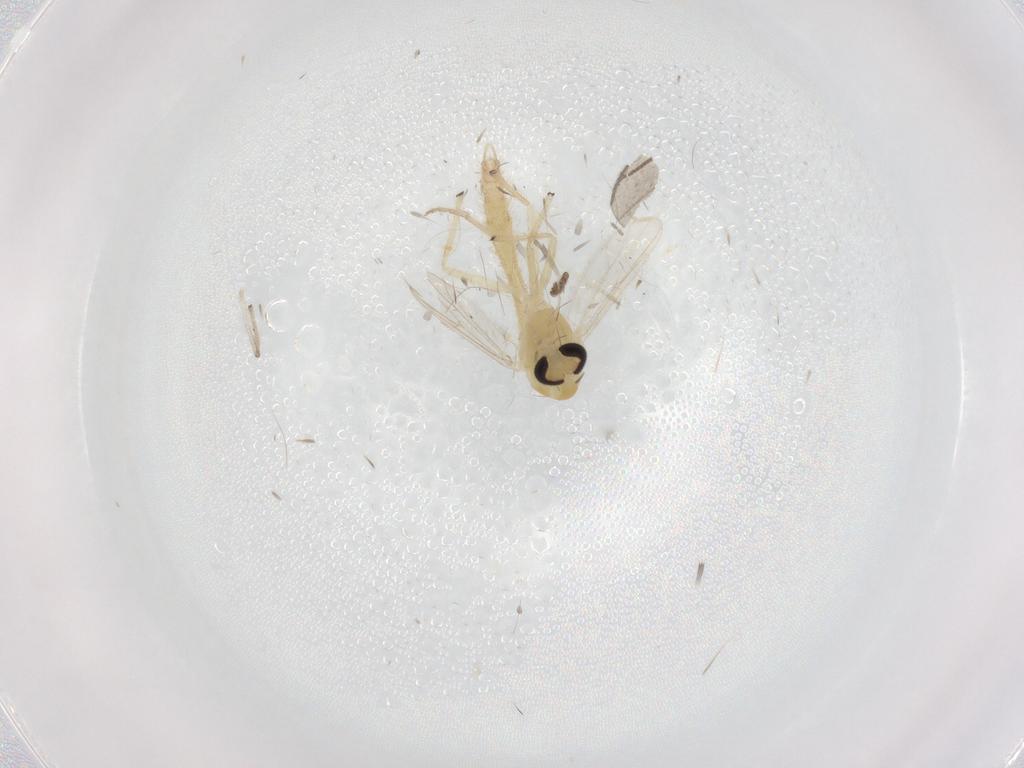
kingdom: Animalia
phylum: Arthropoda
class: Insecta
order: Diptera
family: Chironomidae
